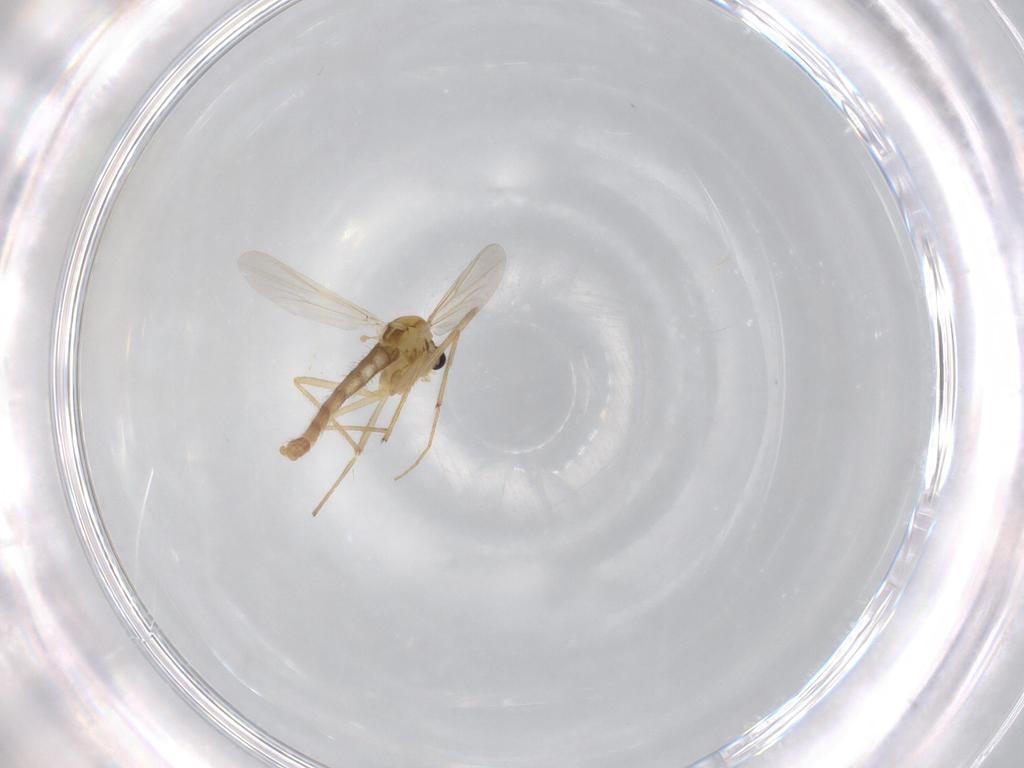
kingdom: Animalia
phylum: Arthropoda
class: Insecta
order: Diptera
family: Chironomidae
